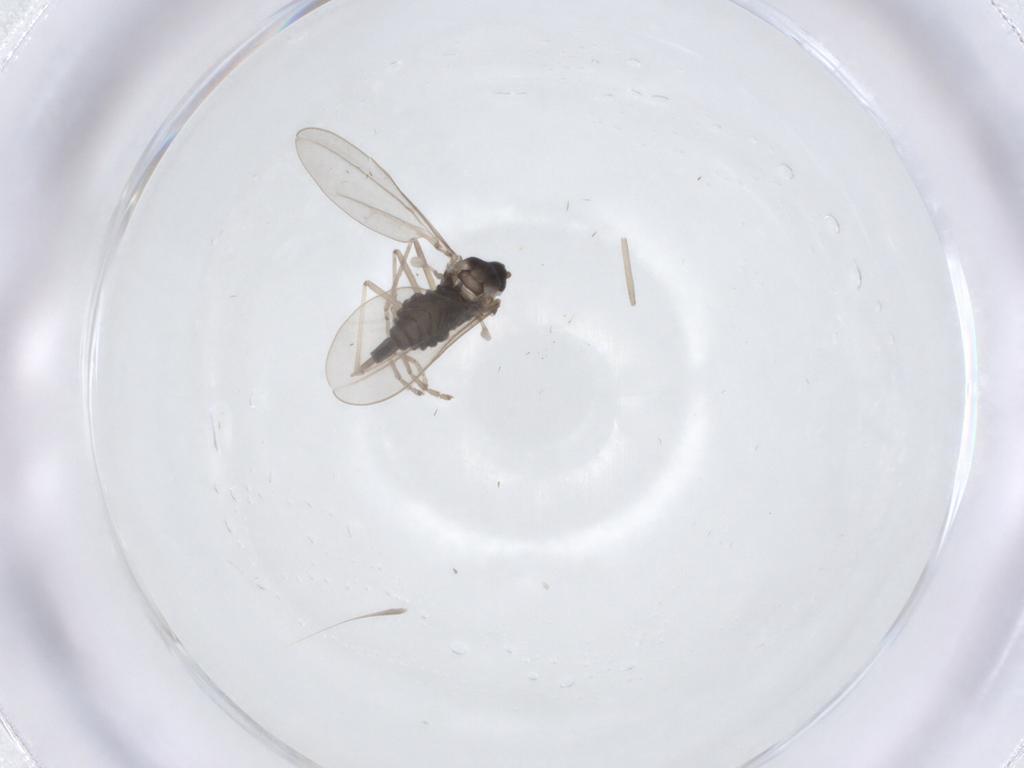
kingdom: Animalia
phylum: Arthropoda
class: Insecta
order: Diptera
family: Cecidomyiidae
